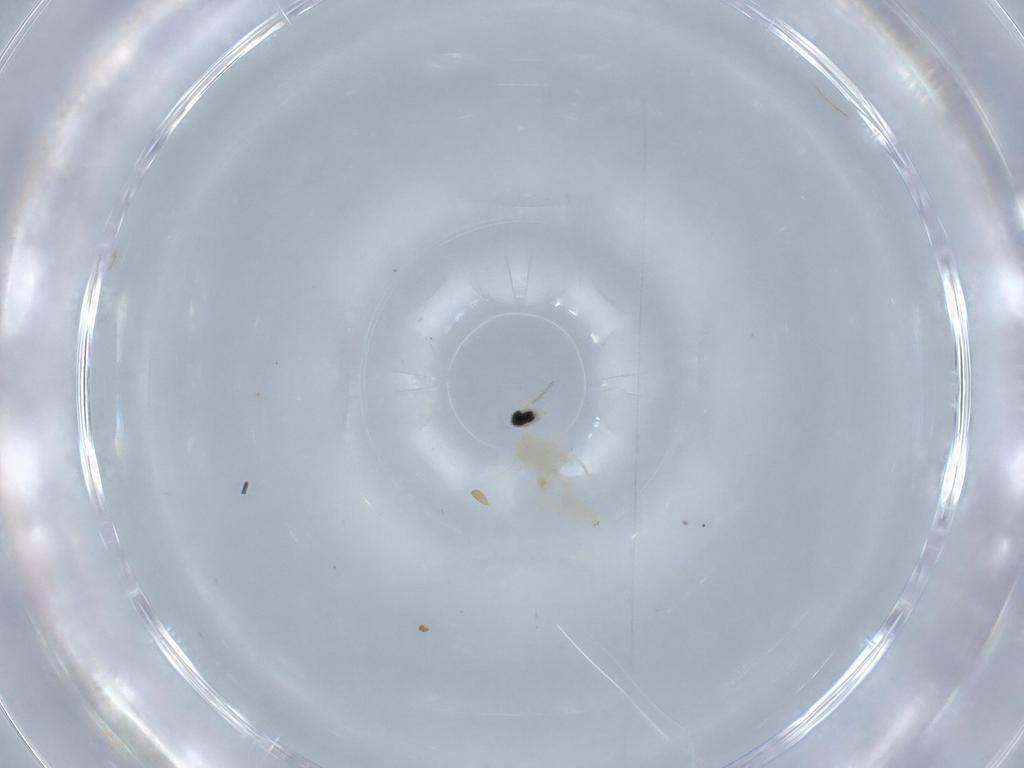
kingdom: Animalia
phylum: Arthropoda
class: Insecta
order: Diptera
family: Cecidomyiidae
